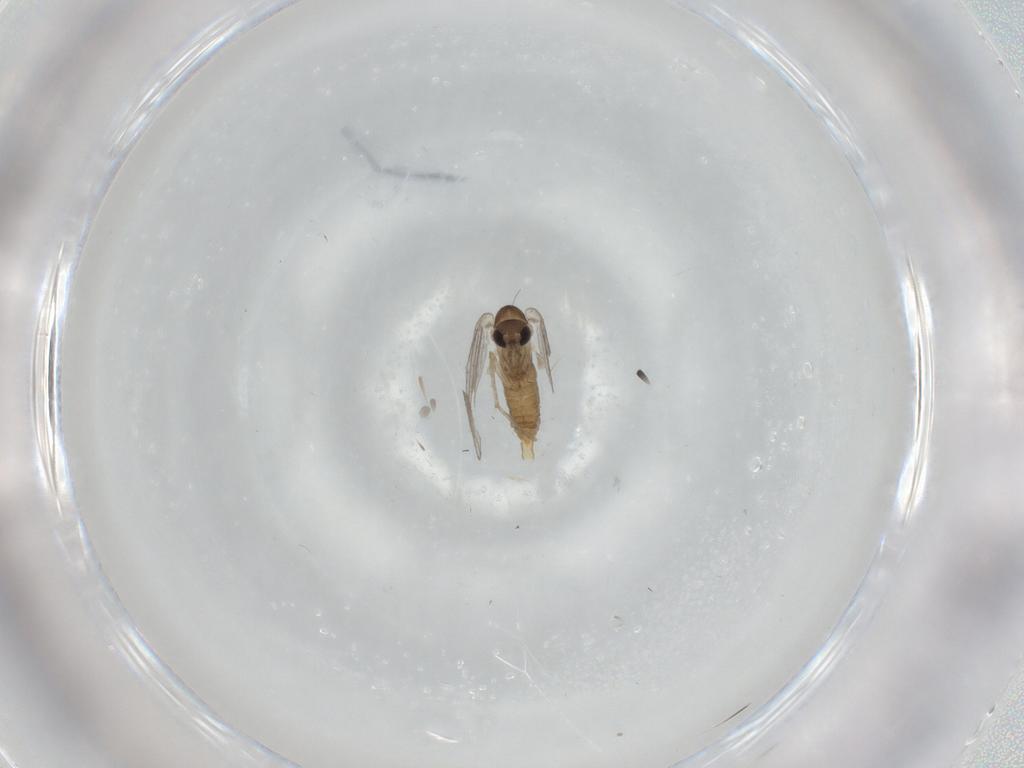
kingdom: Animalia
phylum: Arthropoda
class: Insecta
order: Diptera
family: Psychodidae
